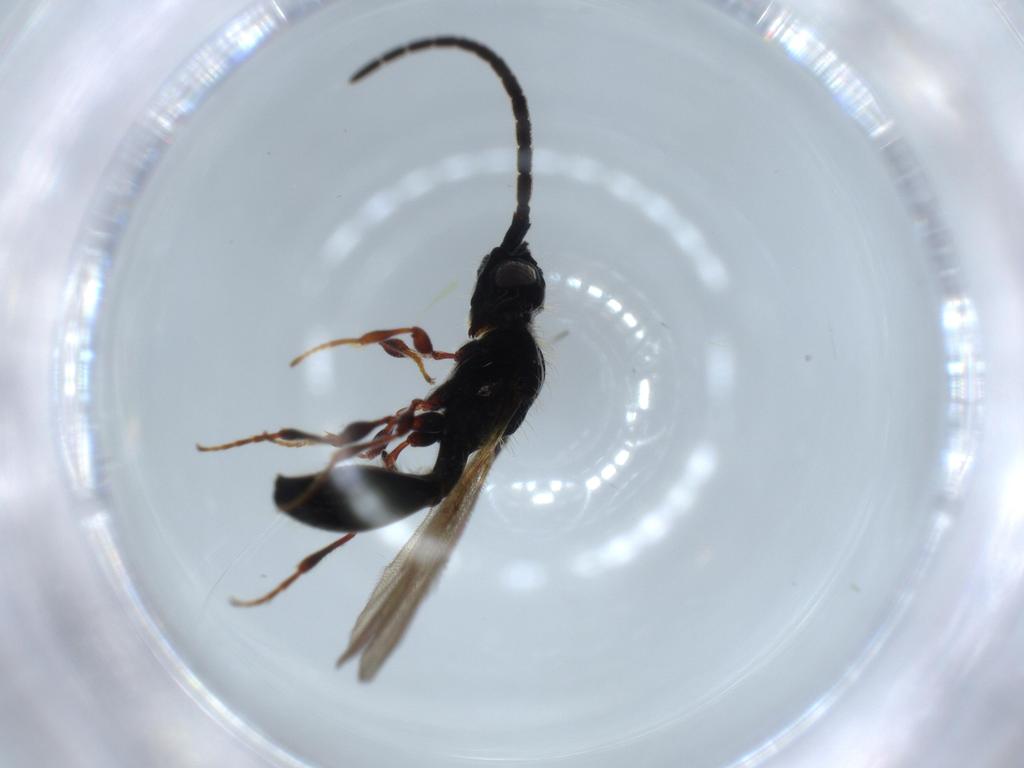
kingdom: Animalia
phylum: Arthropoda
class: Insecta
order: Hymenoptera
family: Diapriidae
